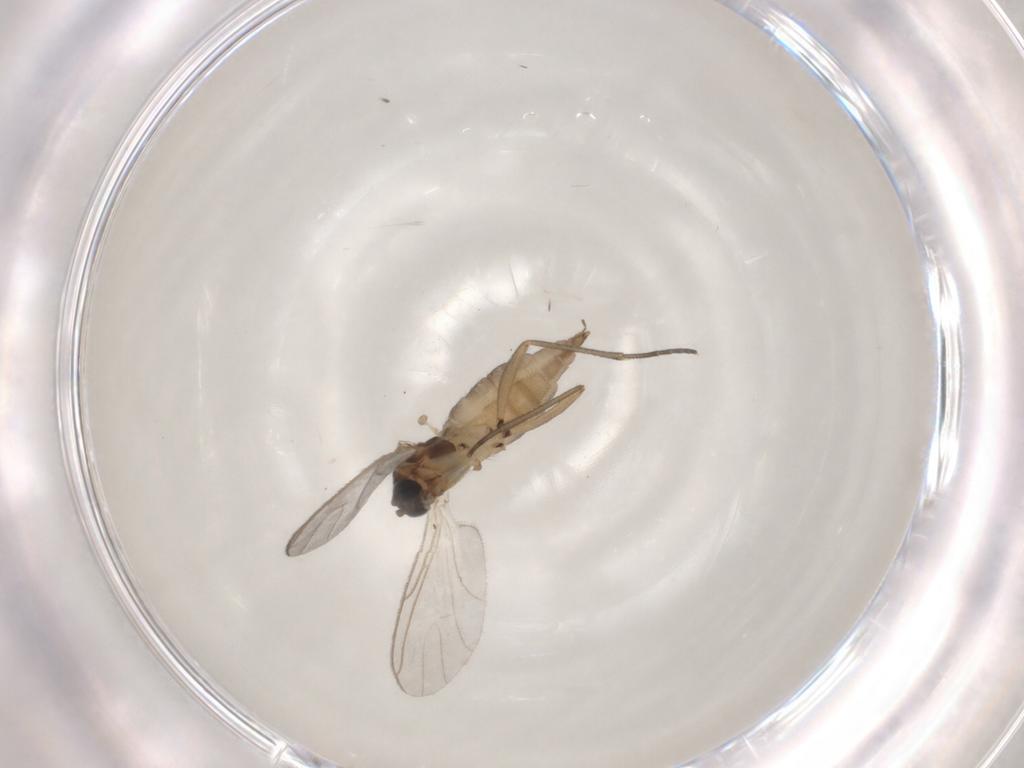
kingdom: Animalia
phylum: Arthropoda
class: Insecta
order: Diptera
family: Sciaridae
